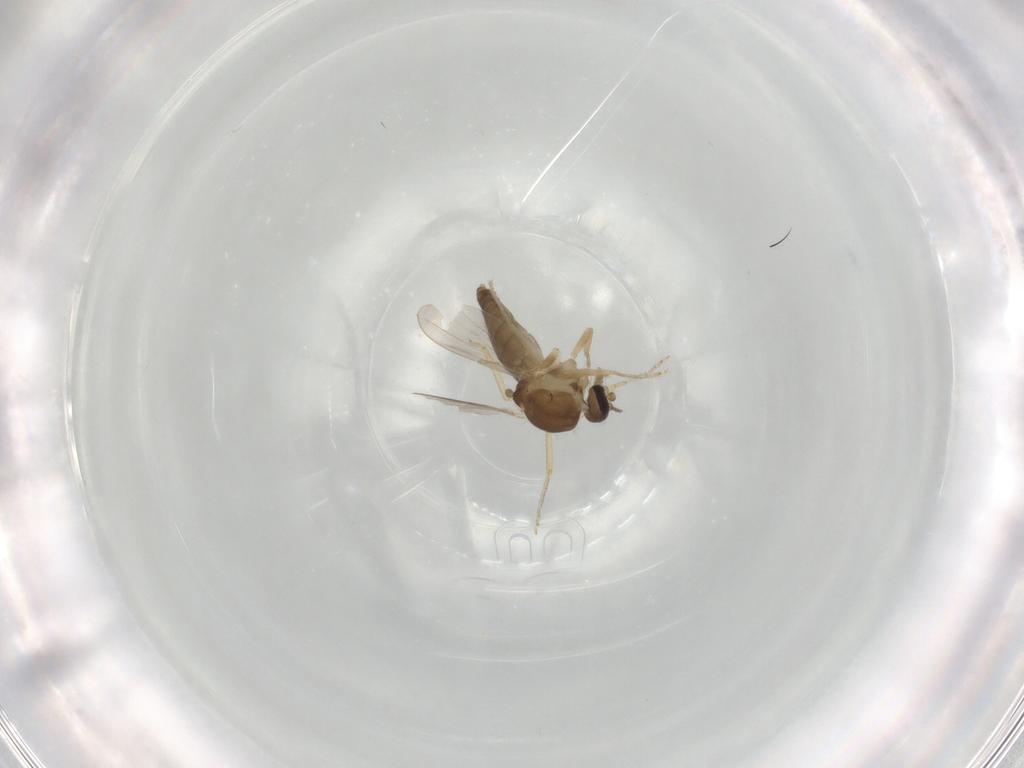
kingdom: Animalia
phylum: Arthropoda
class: Insecta
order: Diptera
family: Ceratopogonidae
